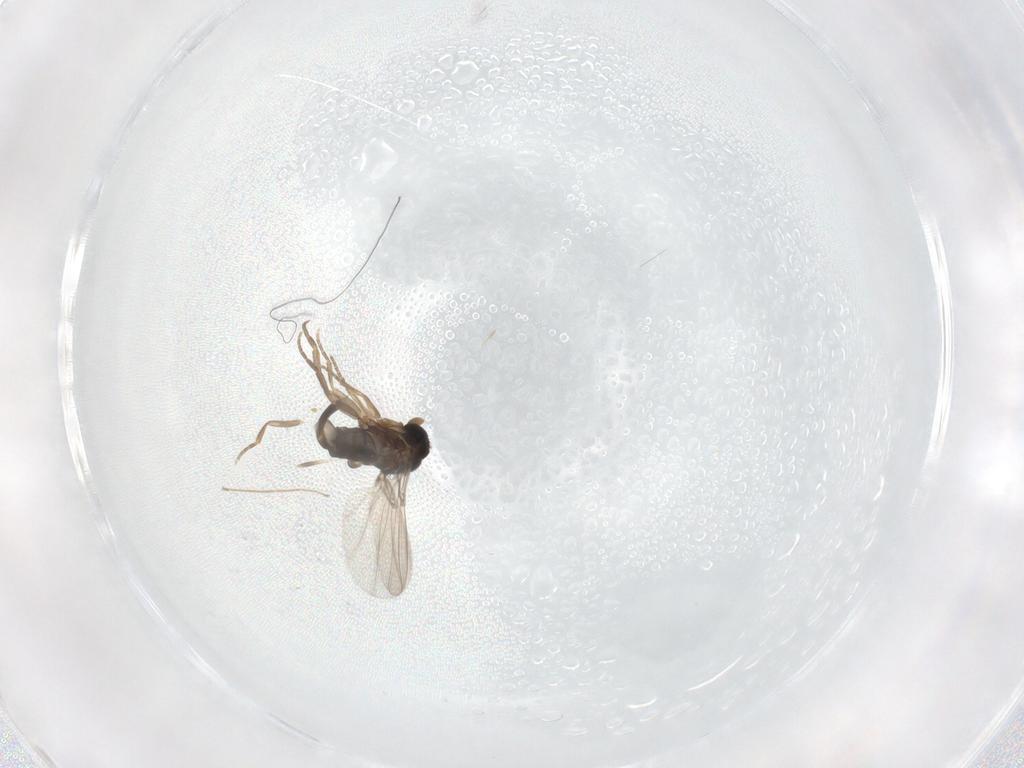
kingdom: Animalia
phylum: Arthropoda
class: Insecta
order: Diptera
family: Phoridae
